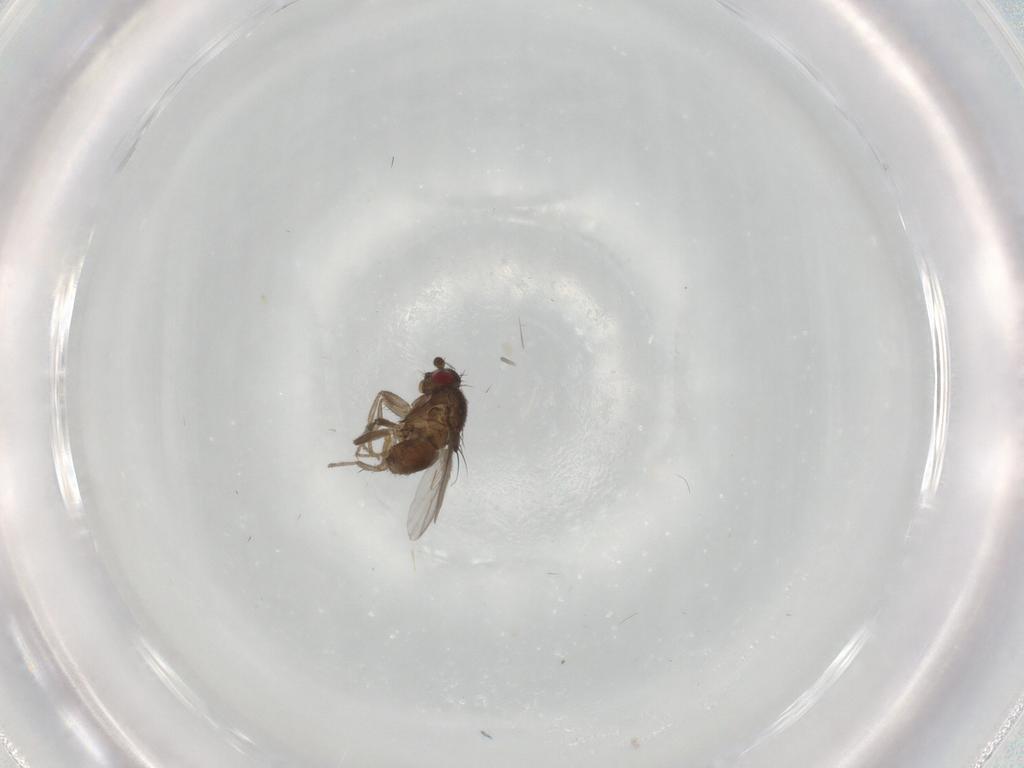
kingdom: Animalia
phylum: Arthropoda
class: Insecta
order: Diptera
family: Sphaeroceridae
